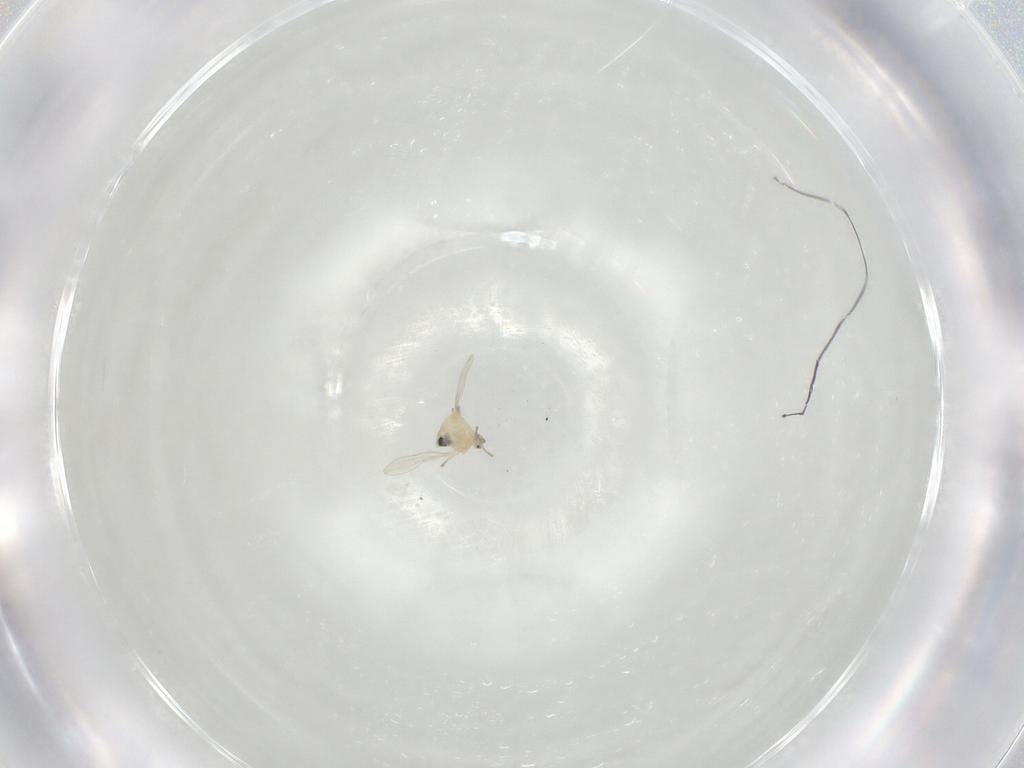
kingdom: Animalia
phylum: Arthropoda
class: Insecta
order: Diptera
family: Cecidomyiidae
